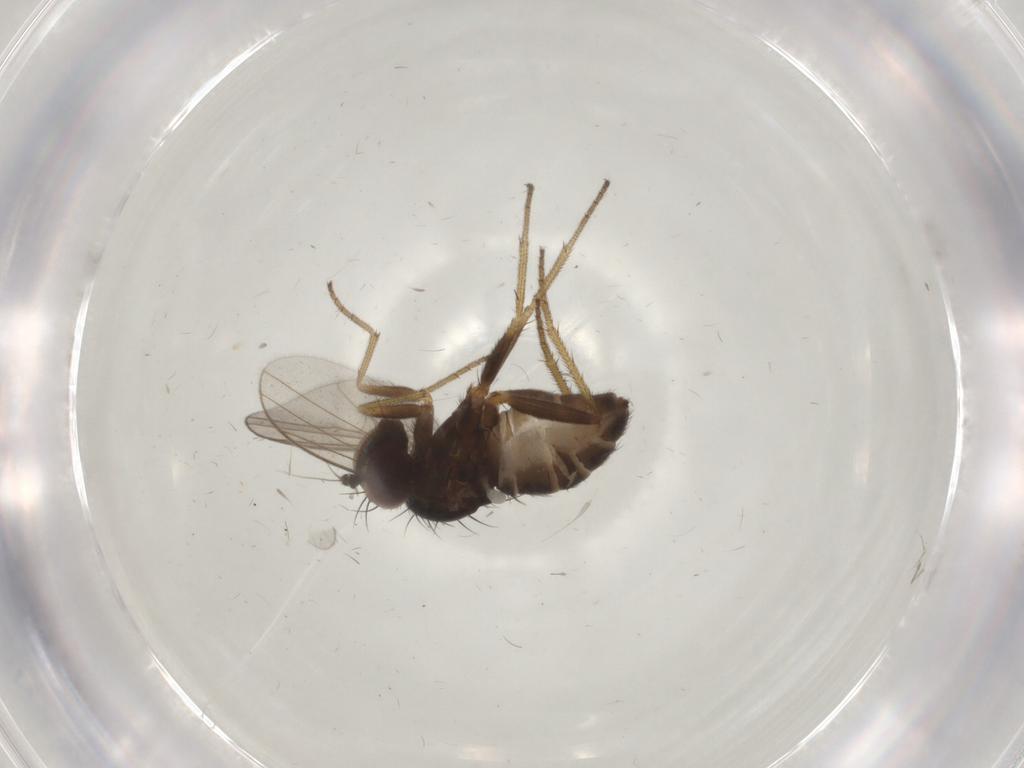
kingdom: Animalia
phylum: Arthropoda
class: Insecta
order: Diptera
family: Dolichopodidae
